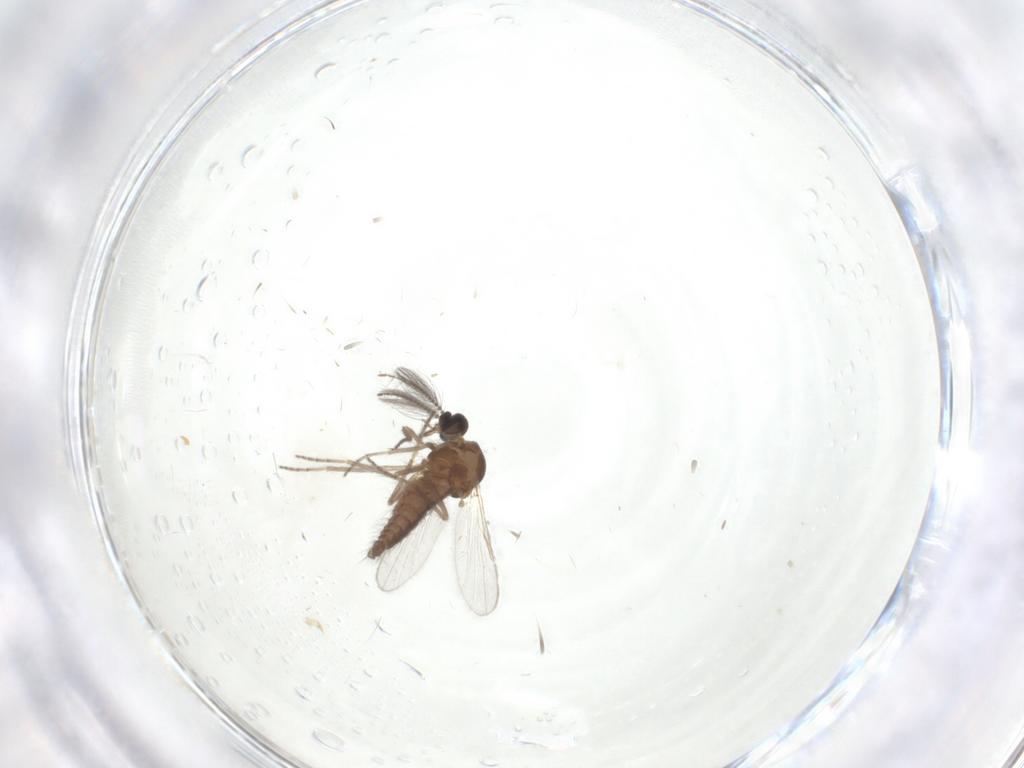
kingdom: Animalia
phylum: Arthropoda
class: Insecta
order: Diptera
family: Ceratopogonidae
